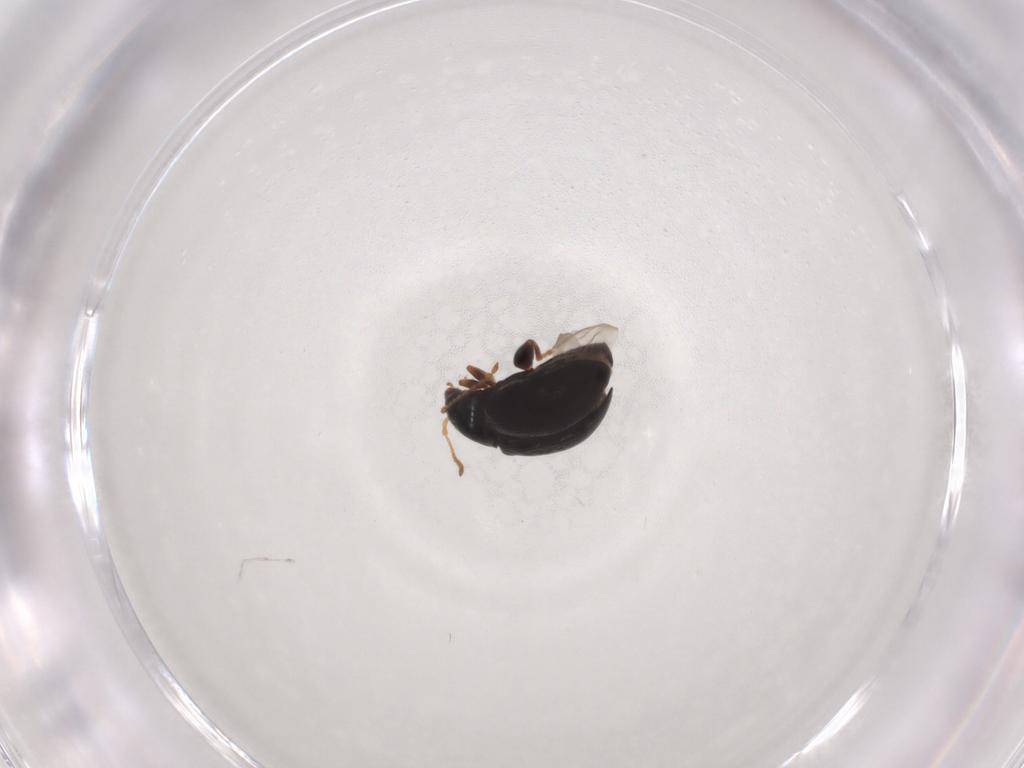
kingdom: Animalia
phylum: Arthropoda
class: Insecta
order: Coleoptera
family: Chrysomelidae
